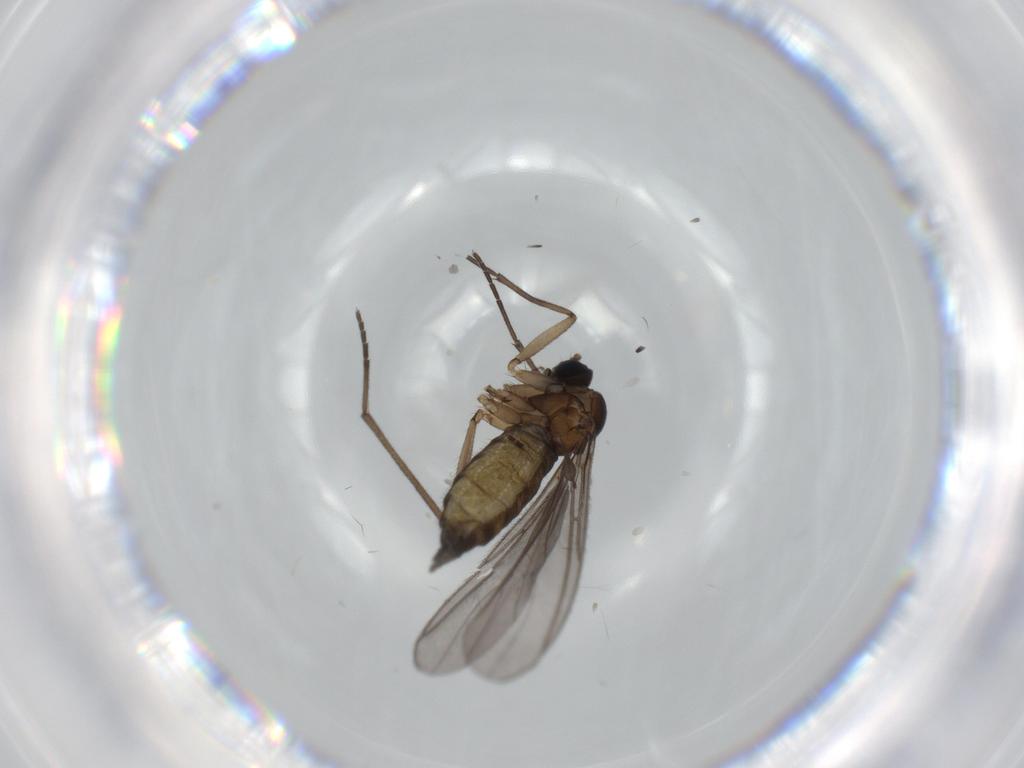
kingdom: Animalia
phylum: Arthropoda
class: Insecta
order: Diptera
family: Sciaridae
